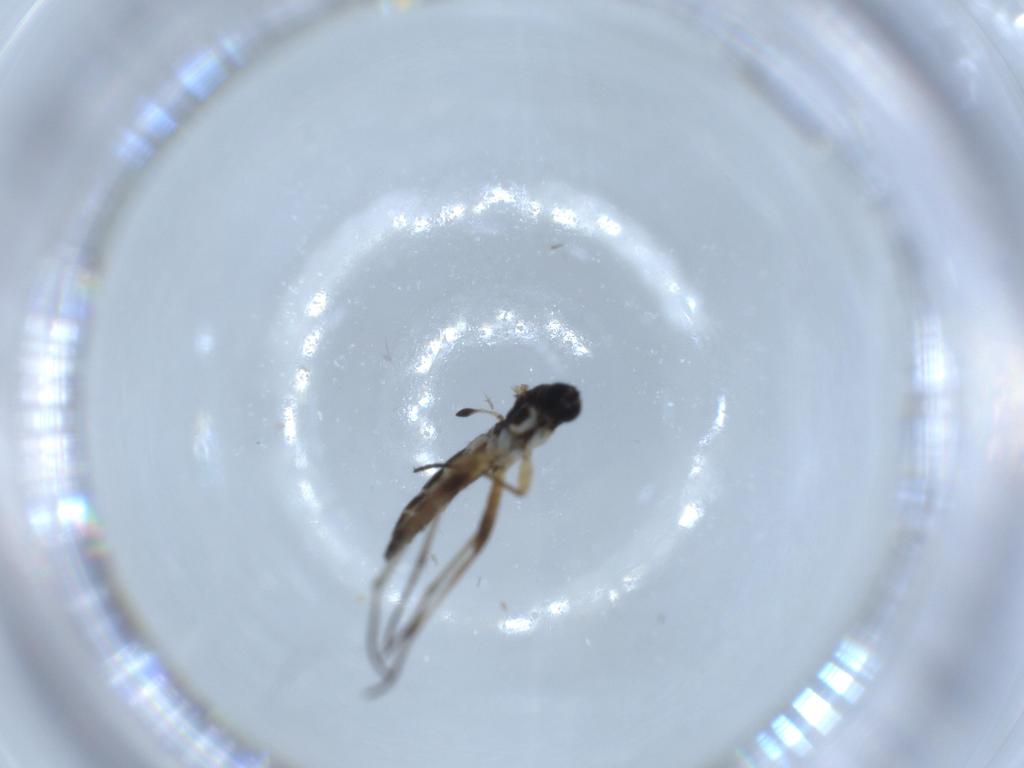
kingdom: Animalia
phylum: Arthropoda
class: Insecta
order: Diptera
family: Sciaridae
